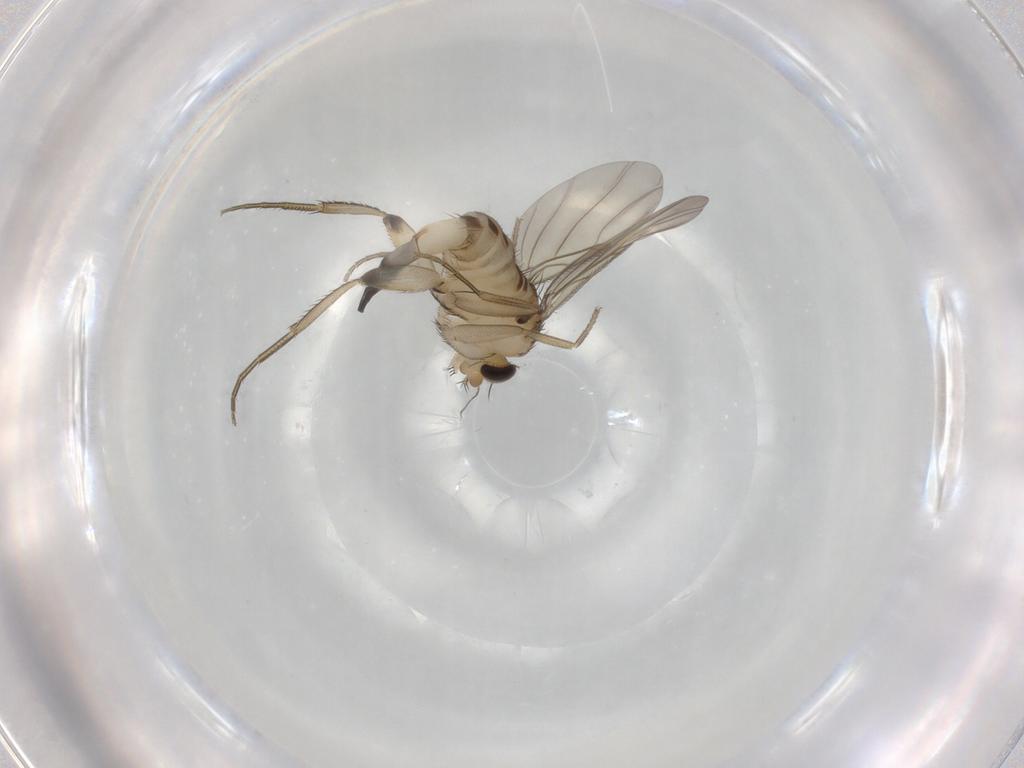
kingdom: Animalia
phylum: Arthropoda
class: Insecta
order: Diptera
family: Phoridae
